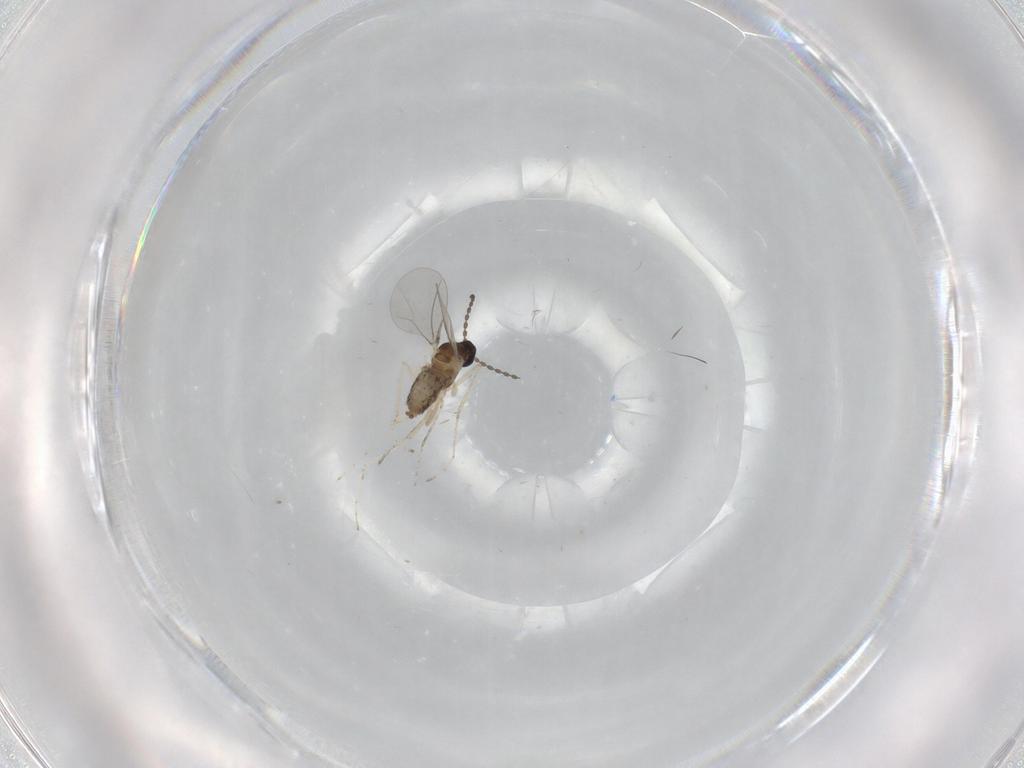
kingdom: Animalia
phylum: Arthropoda
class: Insecta
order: Diptera
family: Cecidomyiidae
